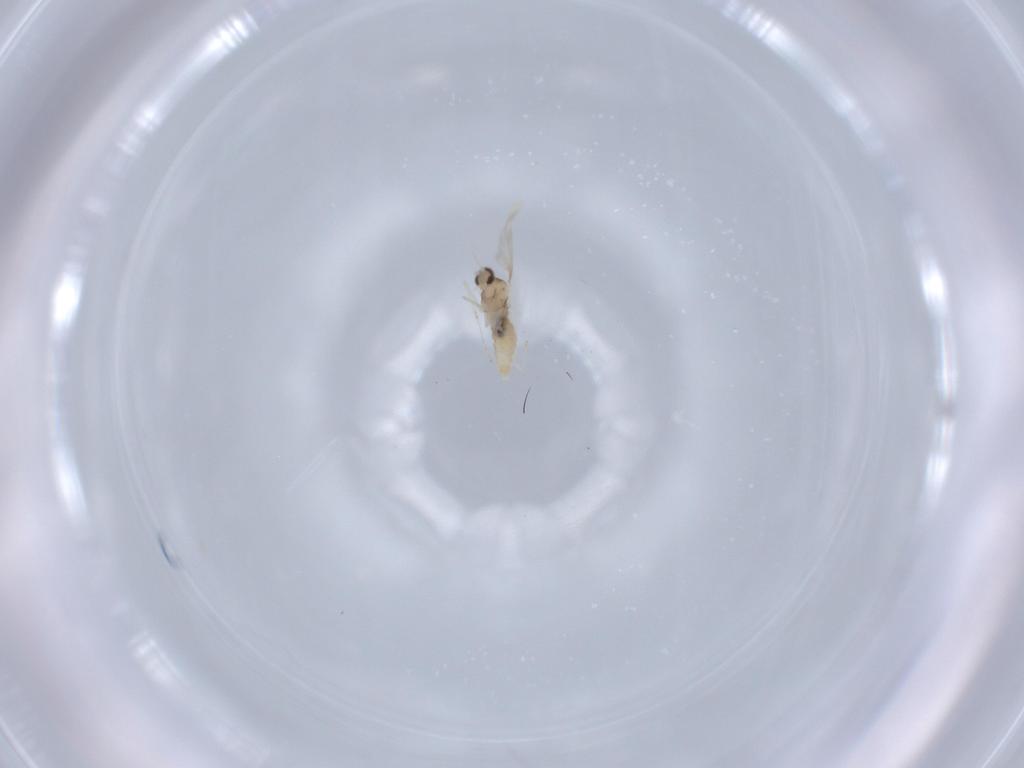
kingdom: Animalia
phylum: Arthropoda
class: Insecta
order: Diptera
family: Cecidomyiidae
